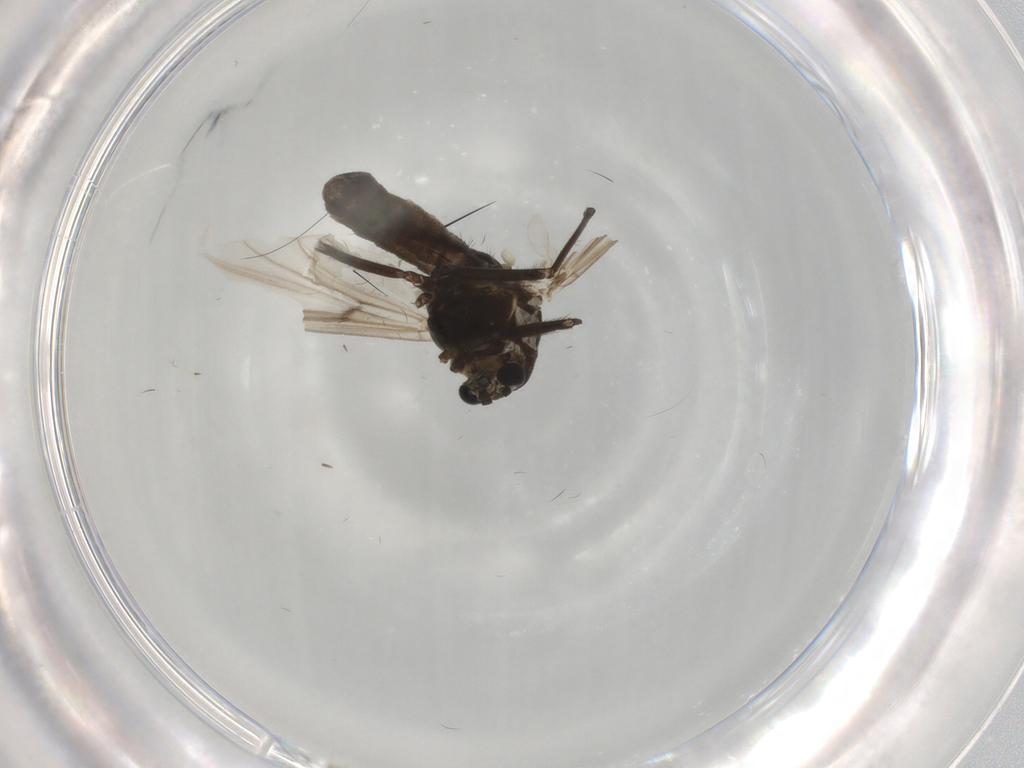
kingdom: Animalia
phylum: Arthropoda
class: Insecta
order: Diptera
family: Chironomidae
